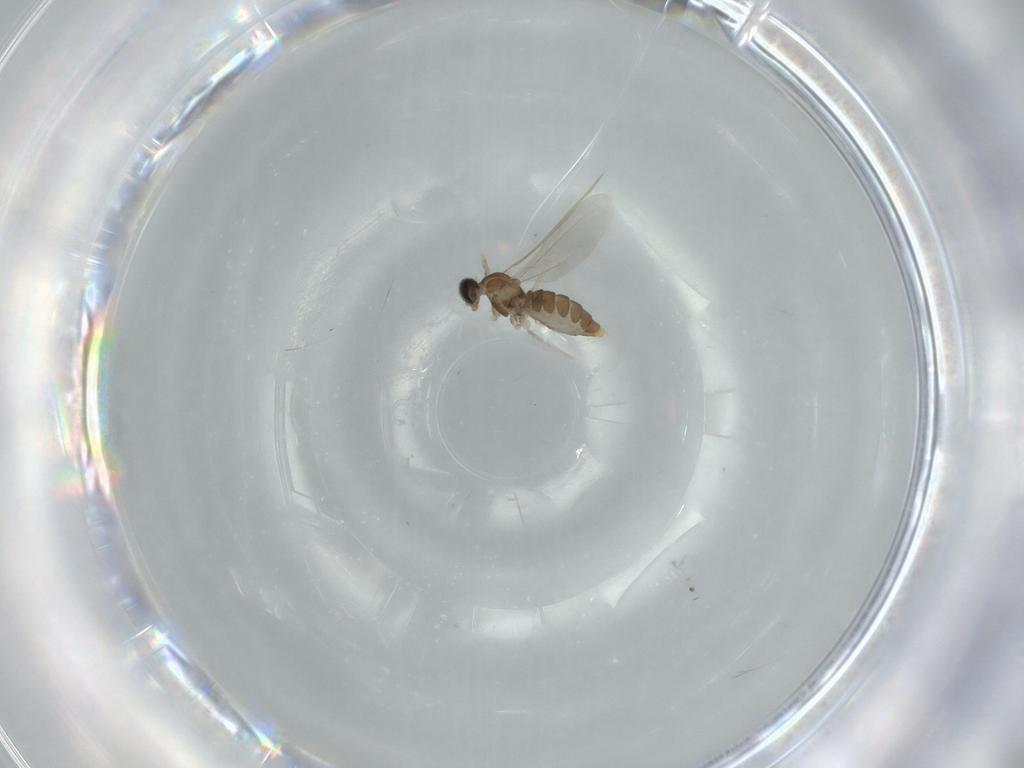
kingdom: Animalia
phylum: Arthropoda
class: Insecta
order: Diptera
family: Cecidomyiidae
